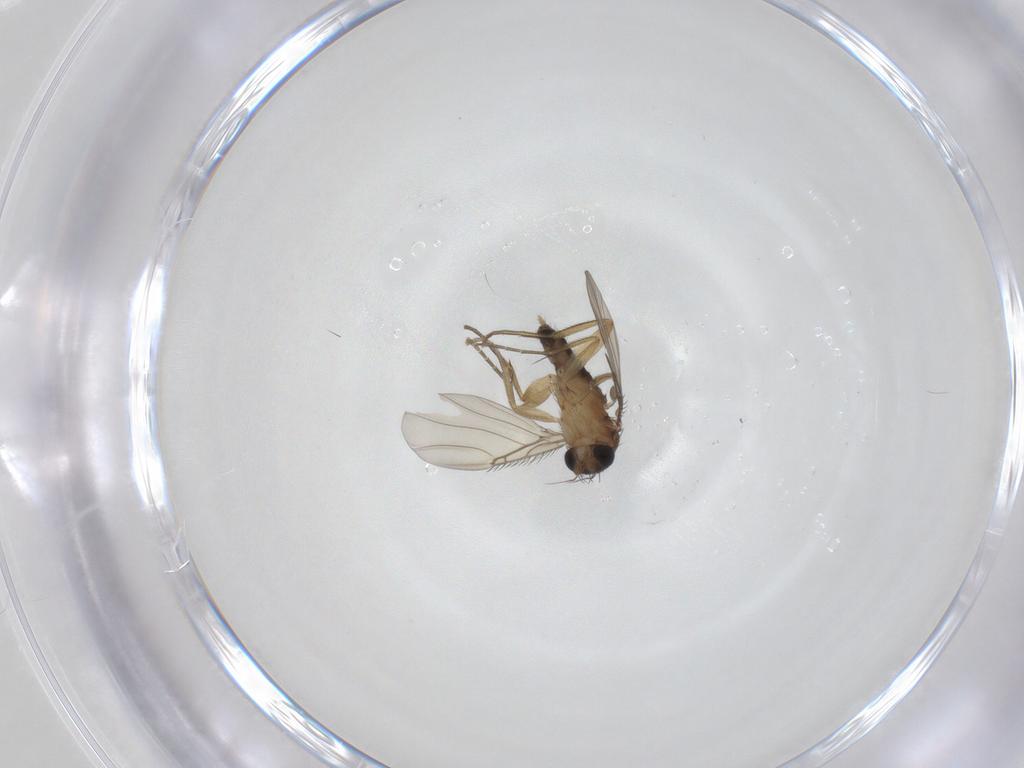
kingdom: Animalia
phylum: Arthropoda
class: Insecta
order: Diptera
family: Phoridae
